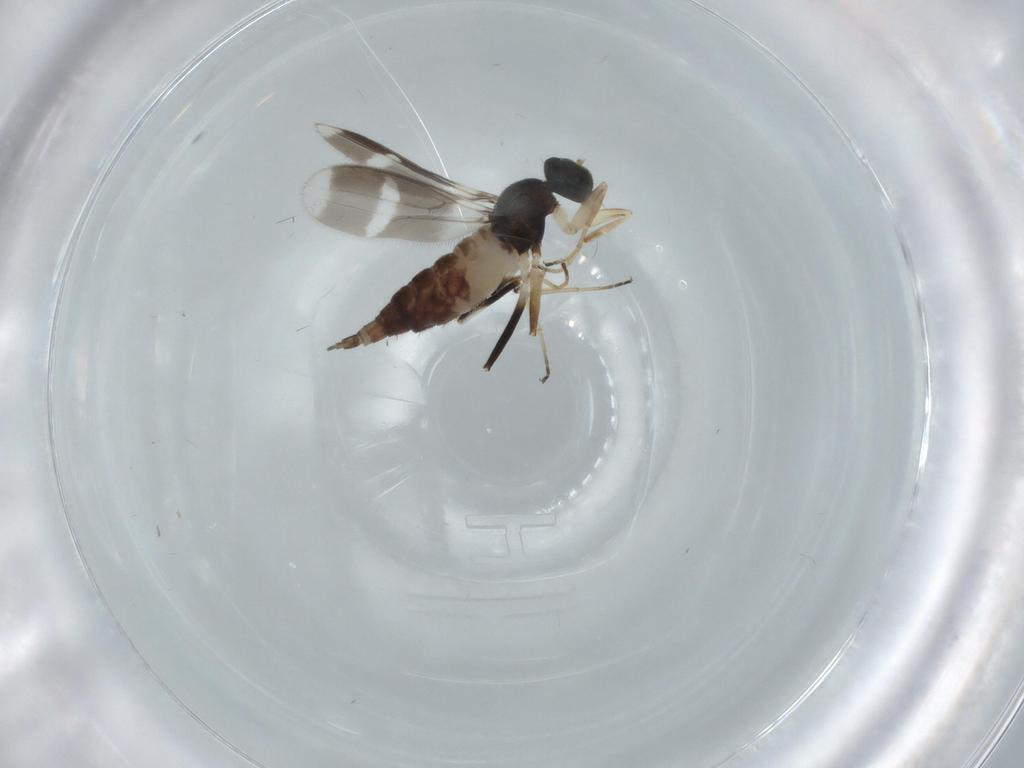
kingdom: Animalia
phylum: Arthropoda
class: Insecta
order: Diptera
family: Hybotidae
